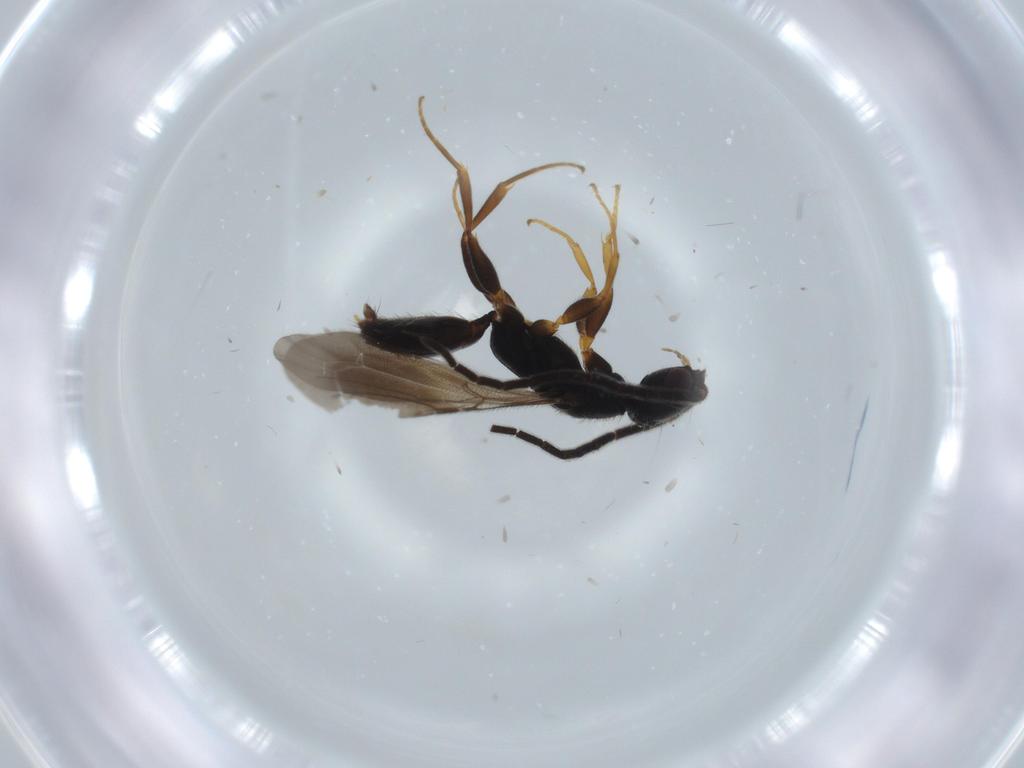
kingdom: Animalia
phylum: Arthropoda
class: Insecta
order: Hymenoptera
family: Bethylidae
